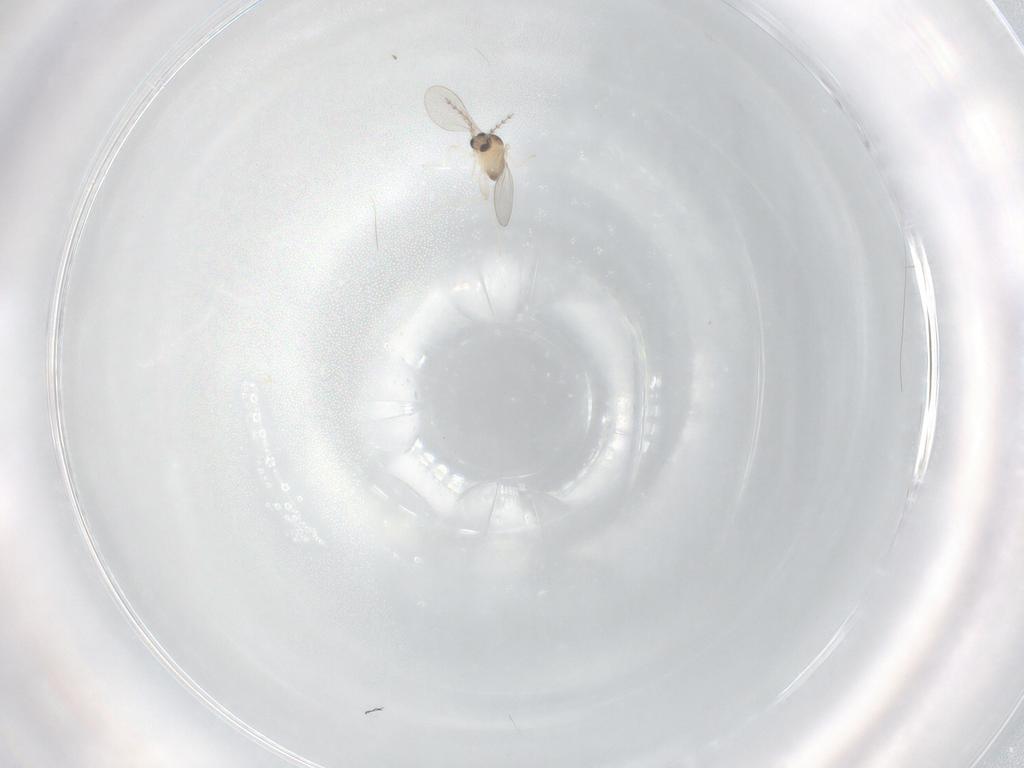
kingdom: Animalia
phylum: Arthropoda
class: Insecta
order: Diptera
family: Cecidomyiidae
